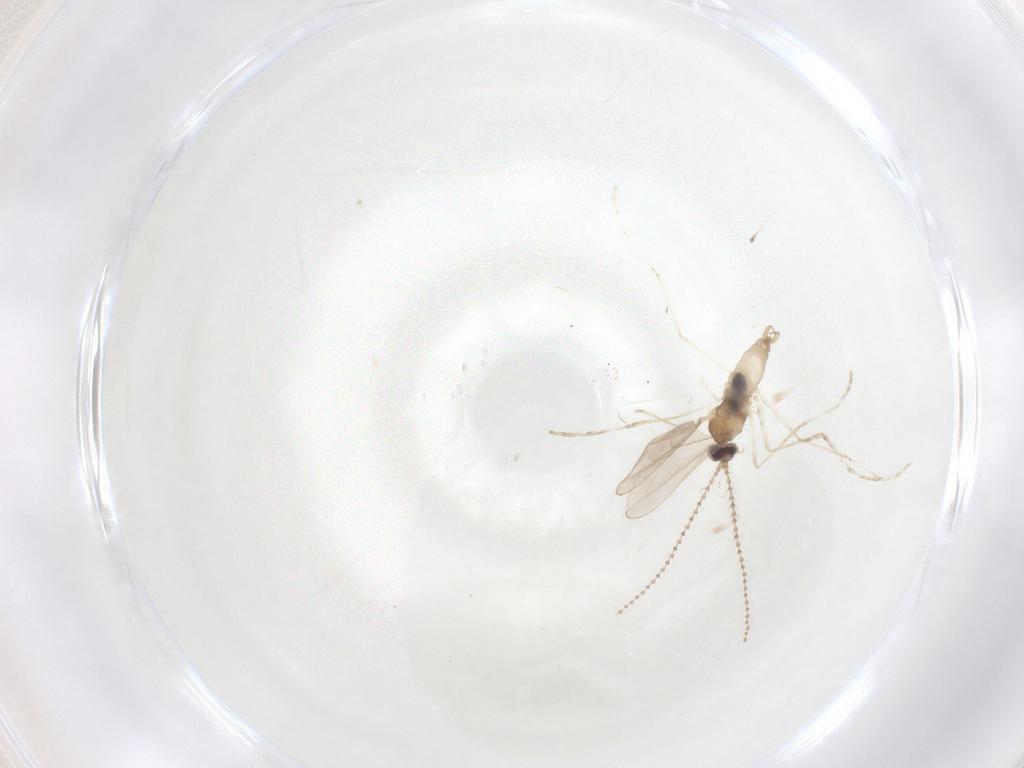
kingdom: Animalia
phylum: Arthropoda
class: Insecta
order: Diptera
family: Cecidomyiidae
